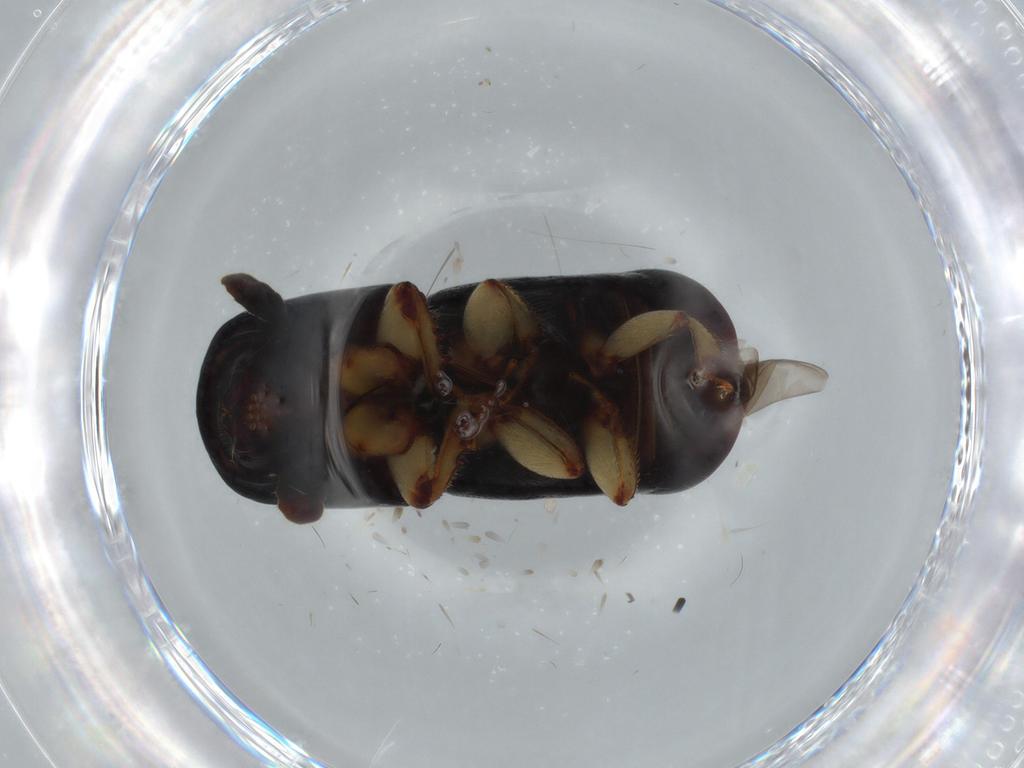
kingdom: Animalia
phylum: Arthropoda
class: Insecta
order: Coleoptera
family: Curculionidae
